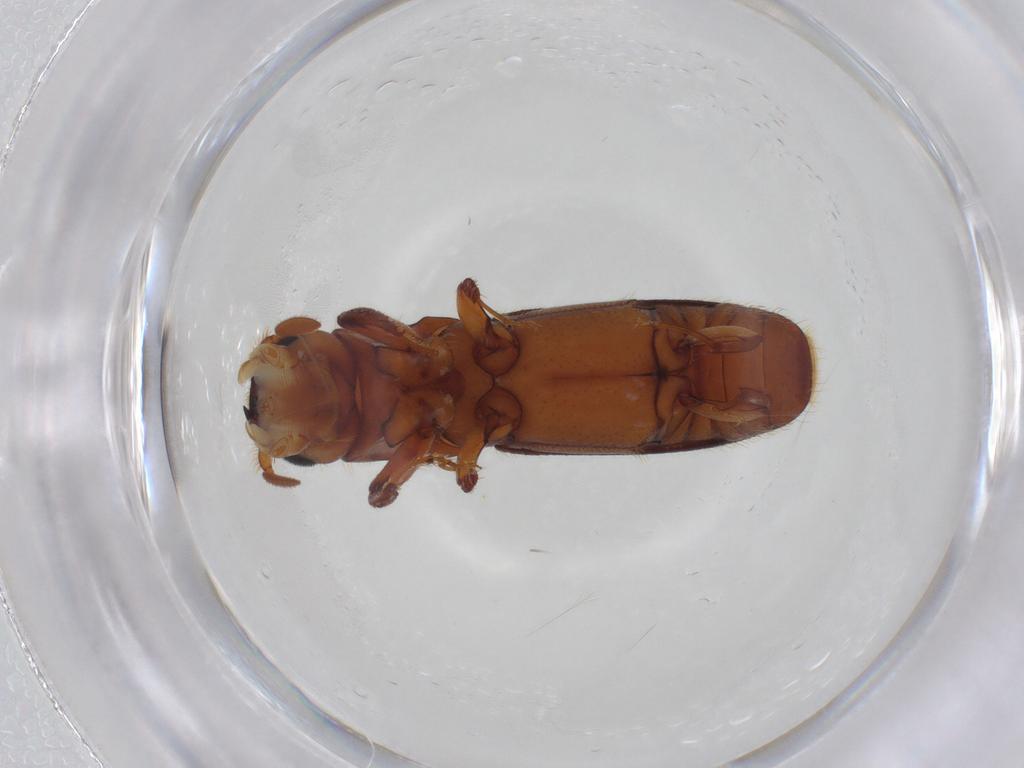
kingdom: Animalia
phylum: Arthropoda
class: Insecta
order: Coleoptera
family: Curculionidae
